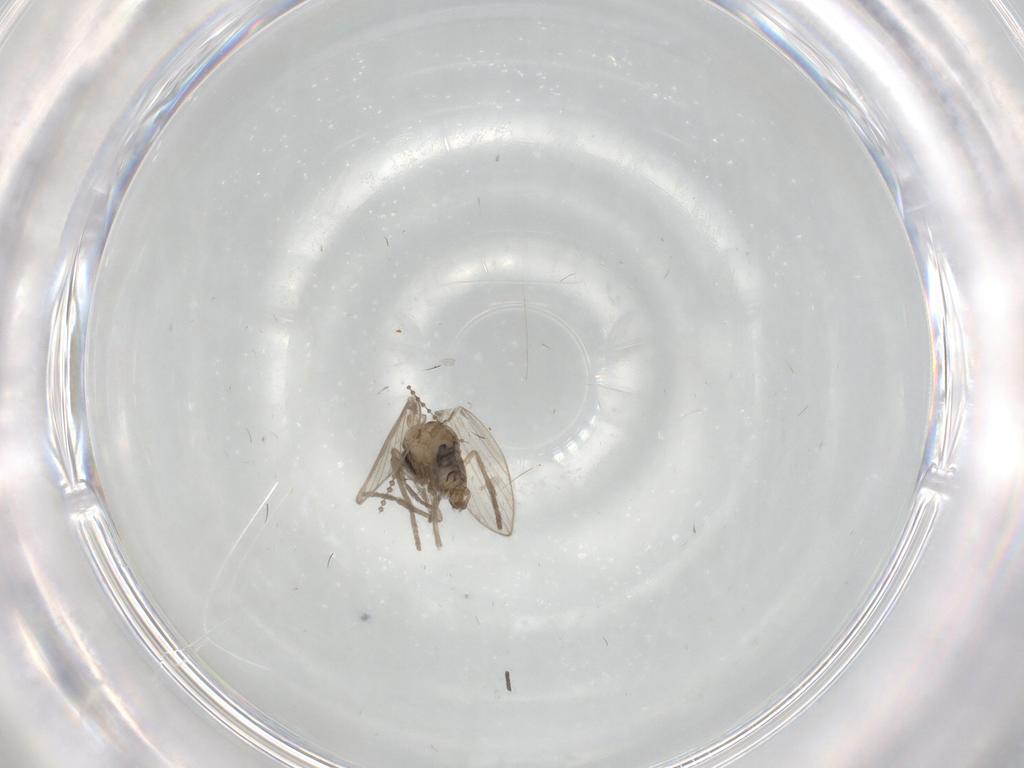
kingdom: Animalia
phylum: Arthropoda
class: Insecta
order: Diptera
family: Psychodidae
